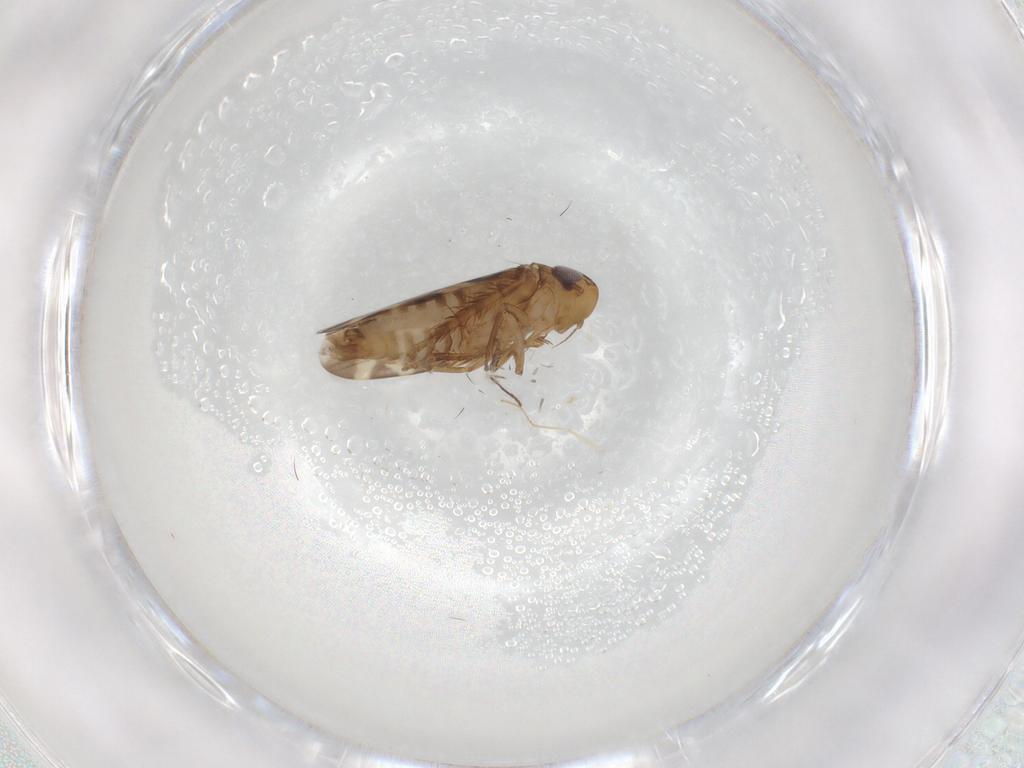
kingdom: Animalia
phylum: Arthropoda
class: Insecta
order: Hemiptera
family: Cicadellidae
